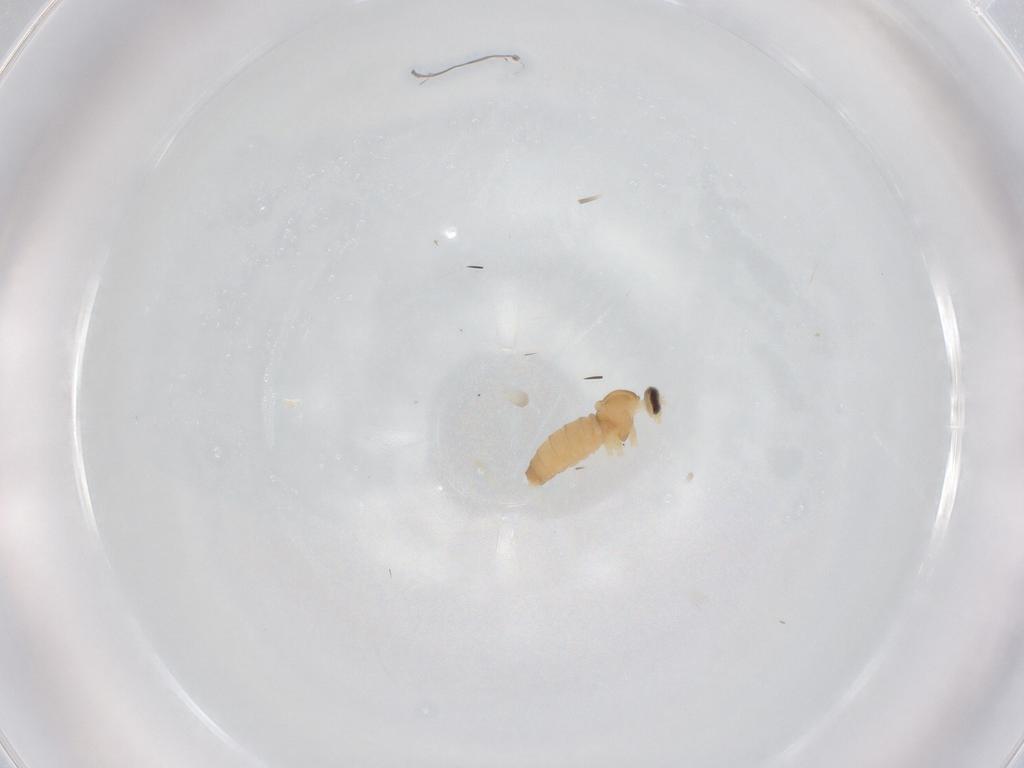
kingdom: Animalia
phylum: Arthropoda
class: Insecta
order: Diptera
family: Cecidomyiidae
